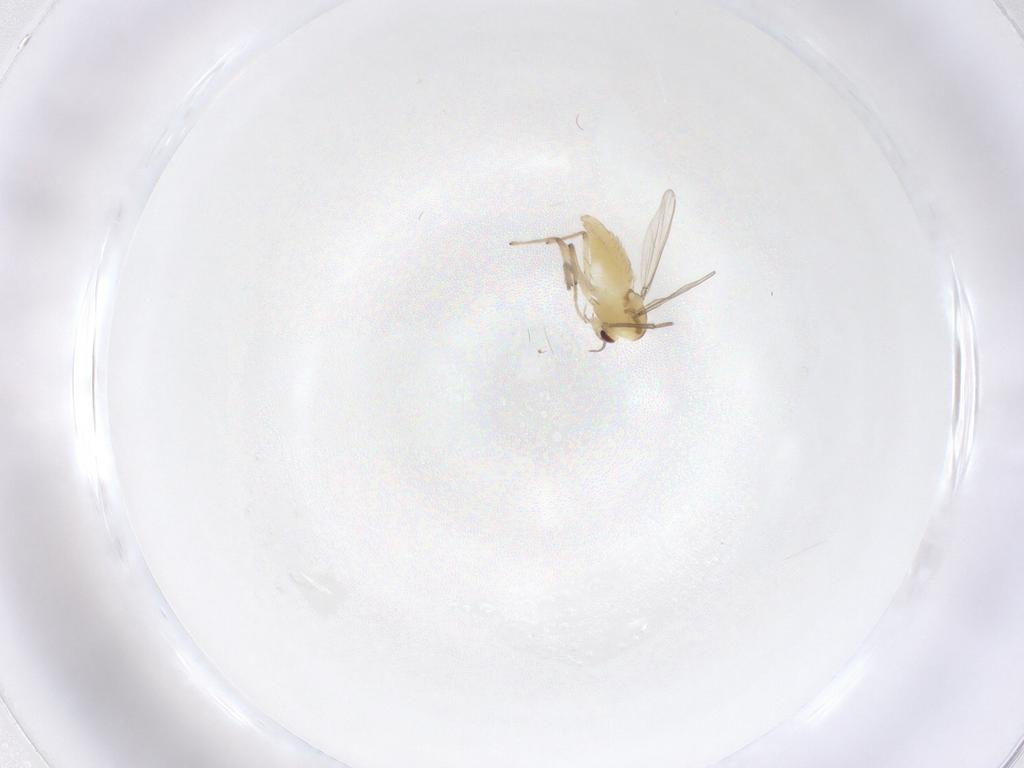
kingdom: Animalia
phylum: Arthropoda
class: Insecta
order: Diptera
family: Chironomidae
